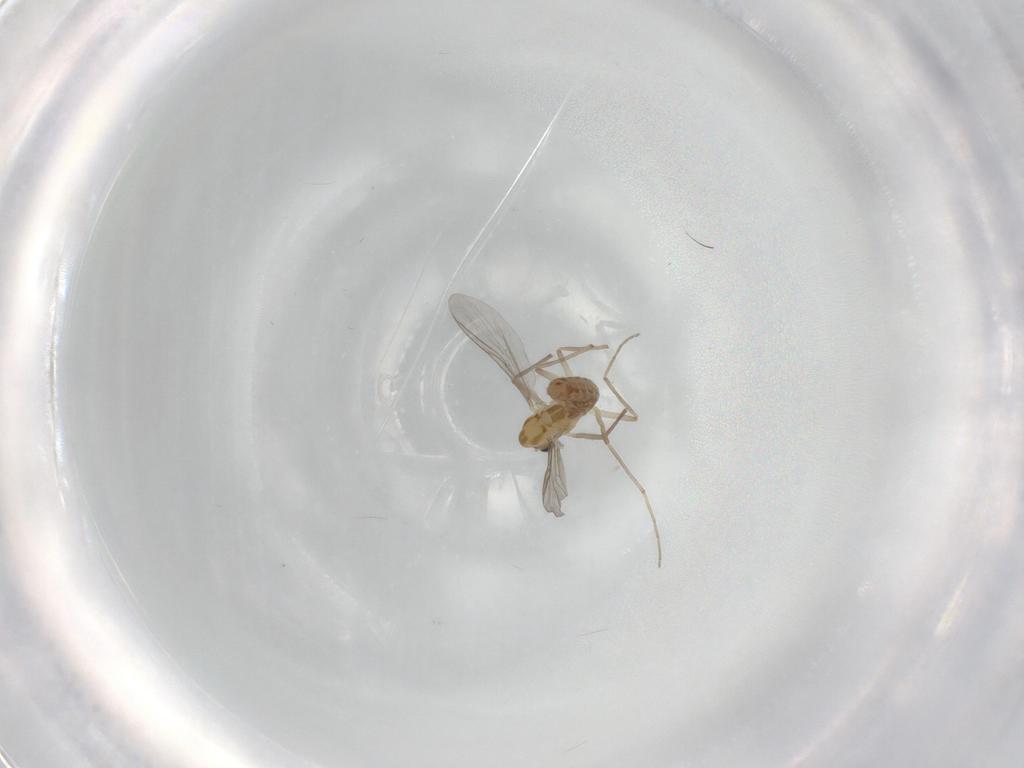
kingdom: Animalia
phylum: Arthropoda
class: Insecta
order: Diptera
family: Chironomidae
